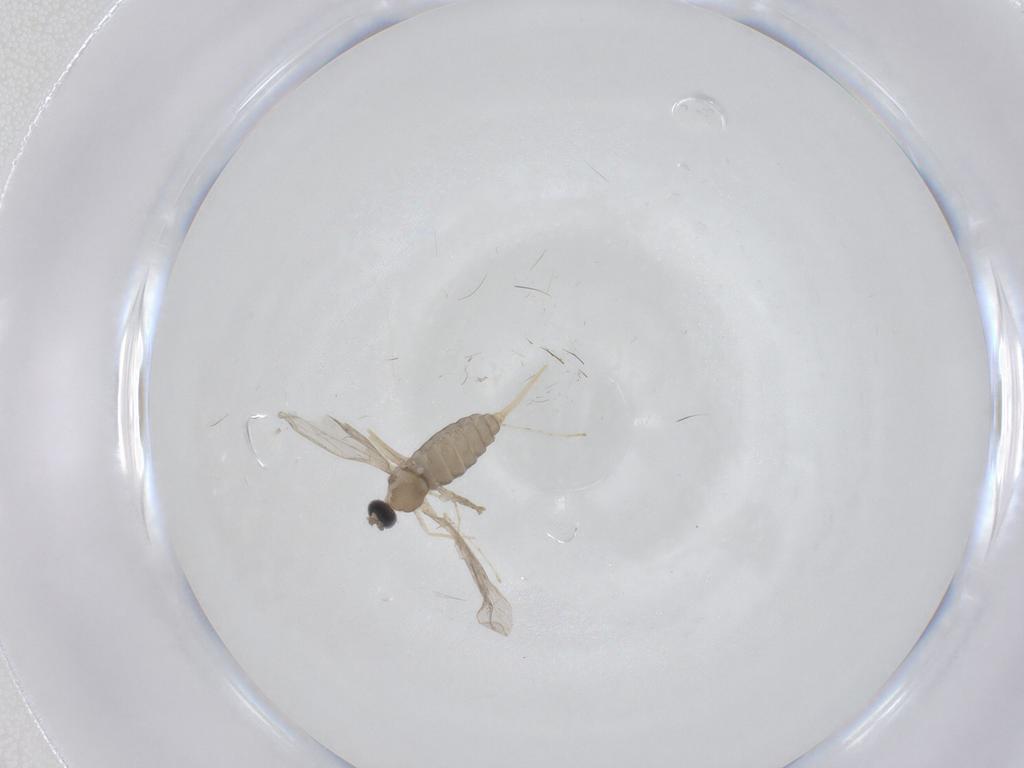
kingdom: Animalia
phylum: Arthropoda
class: Insecta
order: Diptera
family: Cecidomyiidae
